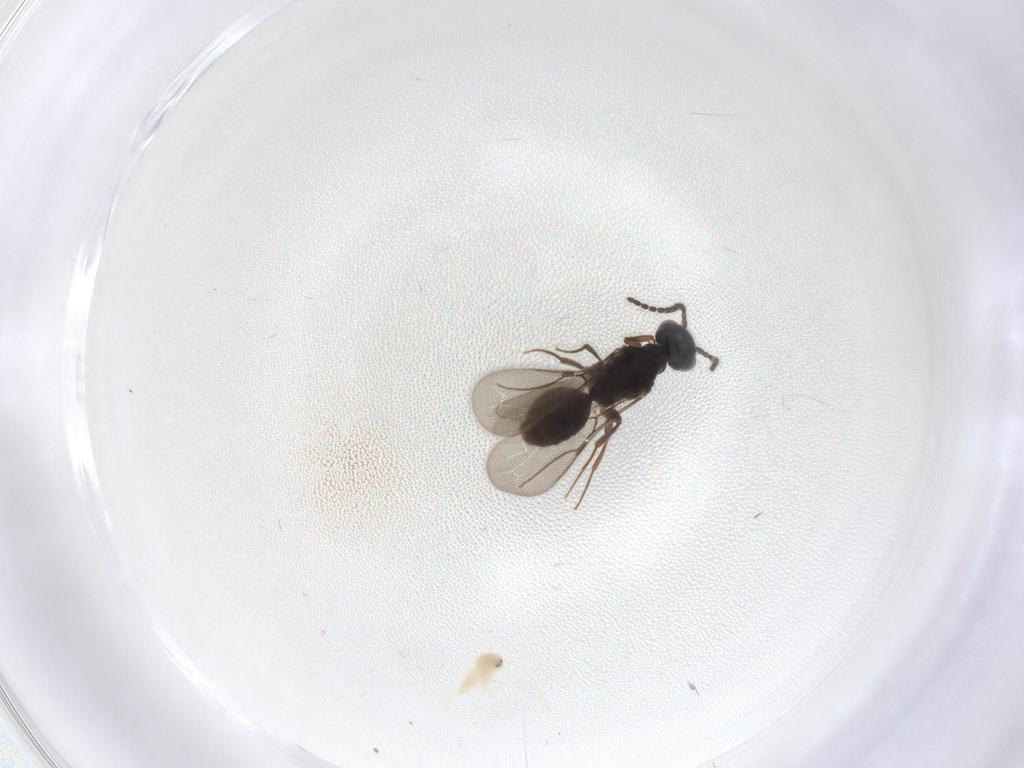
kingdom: Animalia
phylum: Arthropoda
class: Insecta
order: Hymenoptera
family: Bethylidae
